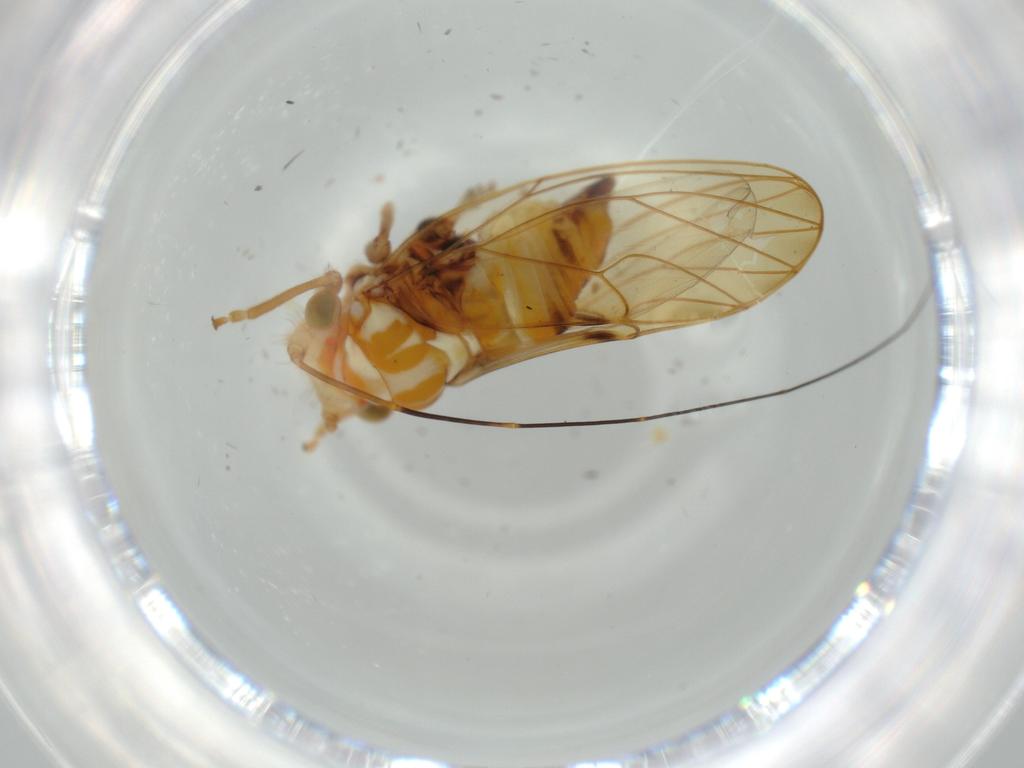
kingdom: Animalia
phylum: Arthropoda
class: Insecta
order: Hemiptera
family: Psyllidae
